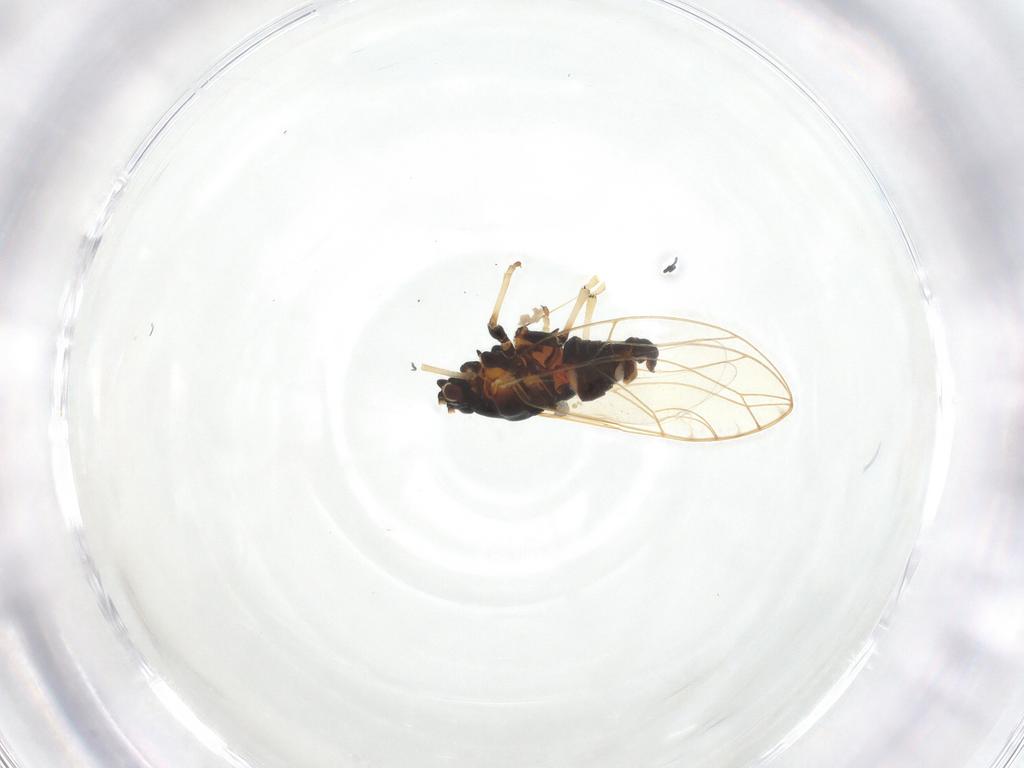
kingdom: Animalia
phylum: Arthropoda
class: Insecta
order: Hemiptera
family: Triozidae
